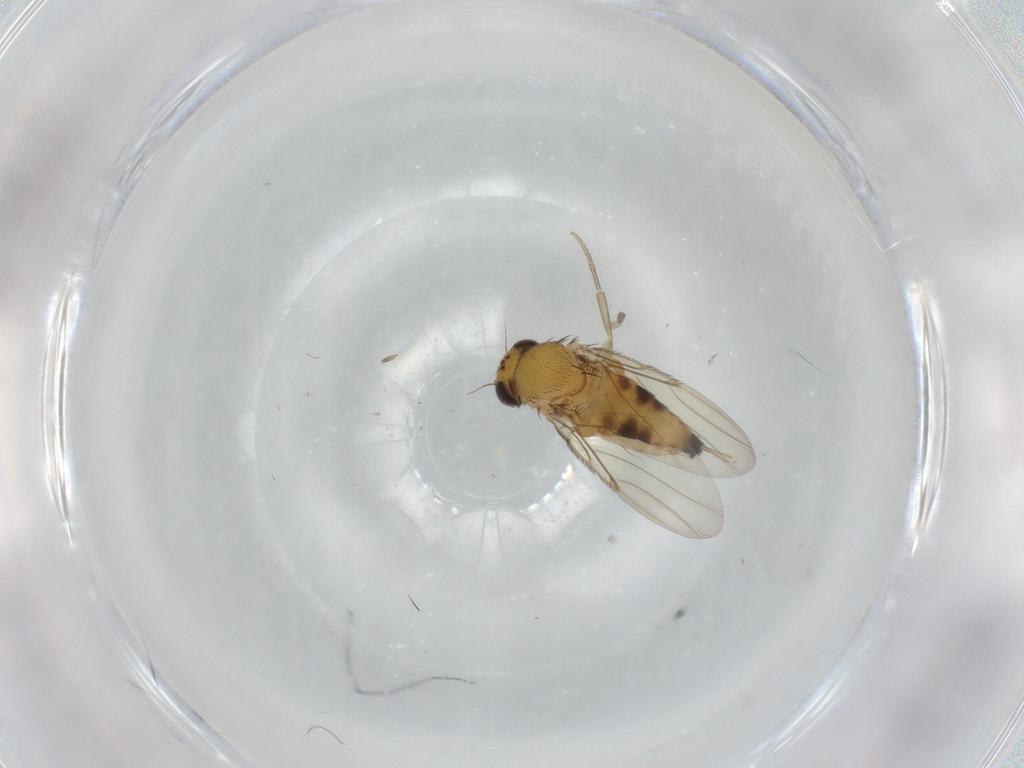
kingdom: Animalia
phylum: Arthropoda
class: Insecta
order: Diptera
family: Phoridae
